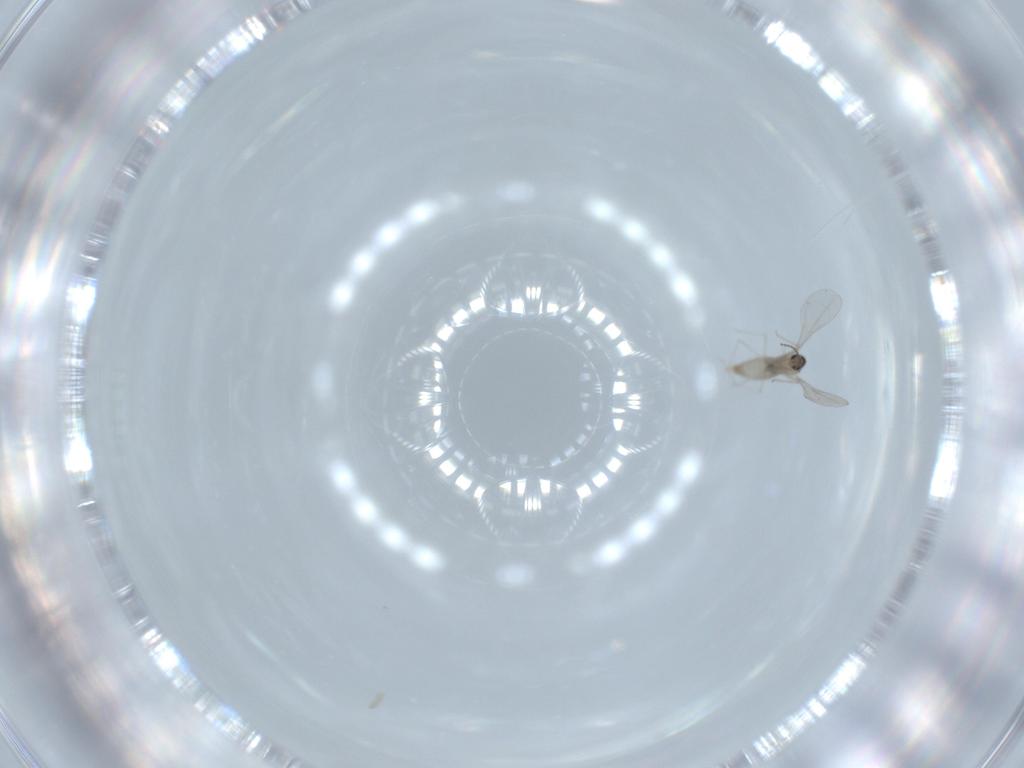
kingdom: Animalia
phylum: Arthropoda
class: Insecta
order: Diptera
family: Cecidomyiidae
